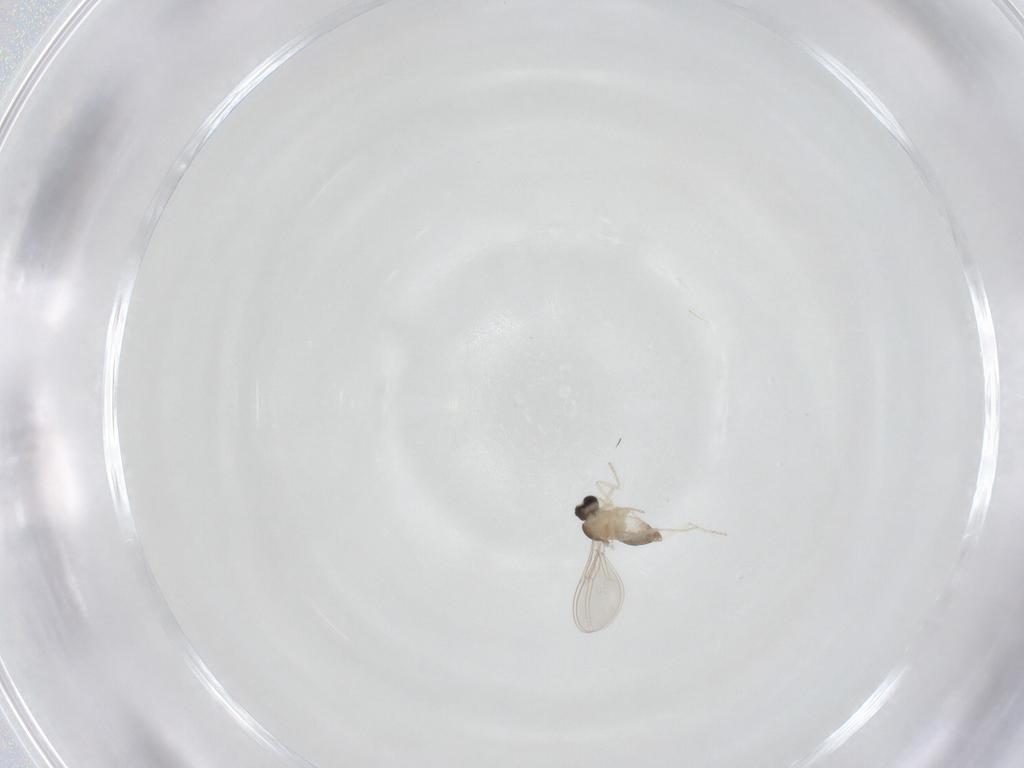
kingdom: Animalia
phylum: Arthropoda
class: Insecta
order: Diptera
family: Cecidomyiidae
